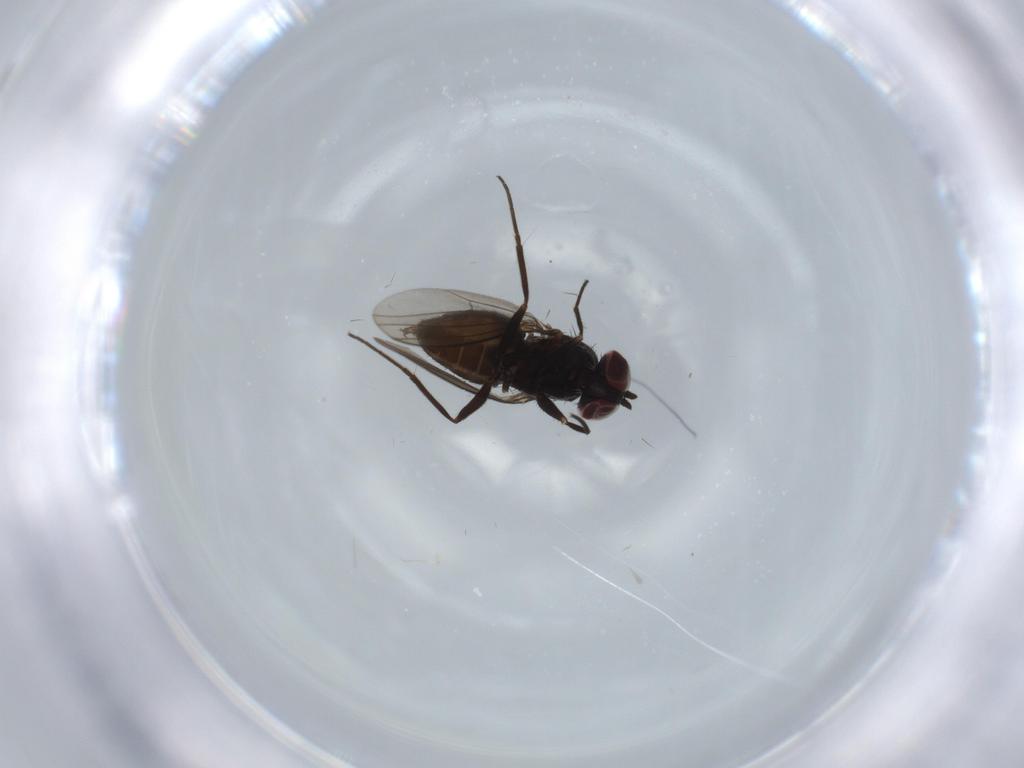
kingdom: Animalia
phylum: Arthropoda
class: Insecta
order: Diptera
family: Dolichopodidae
